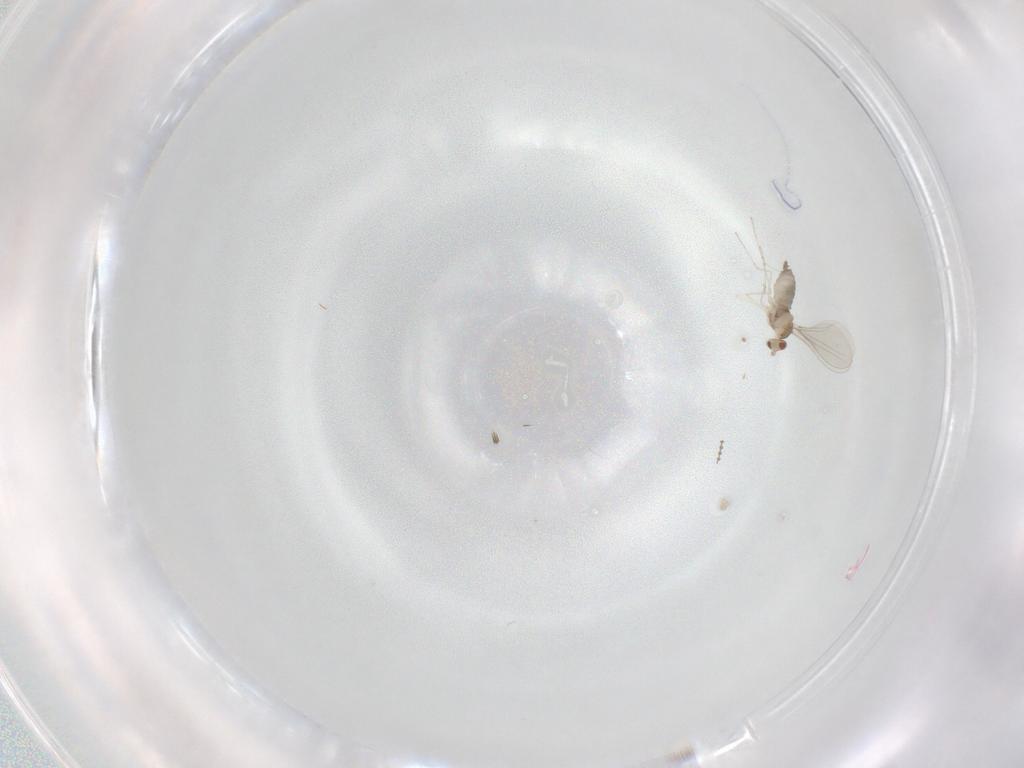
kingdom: Animalia
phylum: Arthropoda
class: Insecta
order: Diptera
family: Cecidomyiidae
